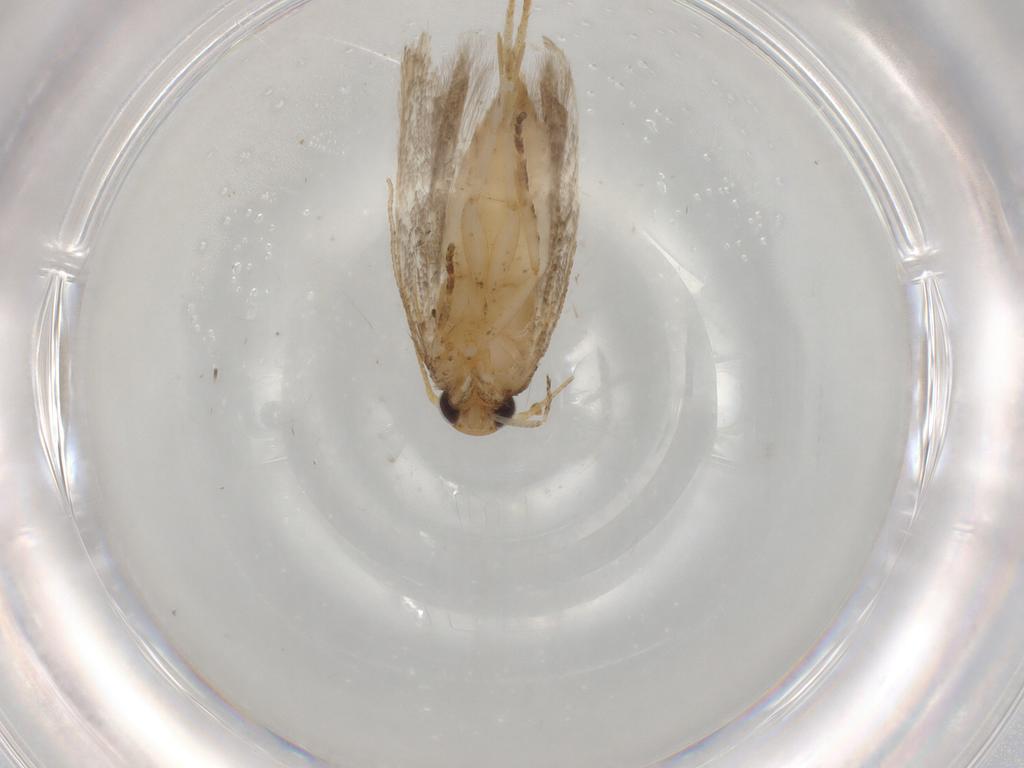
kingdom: Animalia
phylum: Arthropoda
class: Insecta
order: Lepidoptera
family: Gelechiidae
